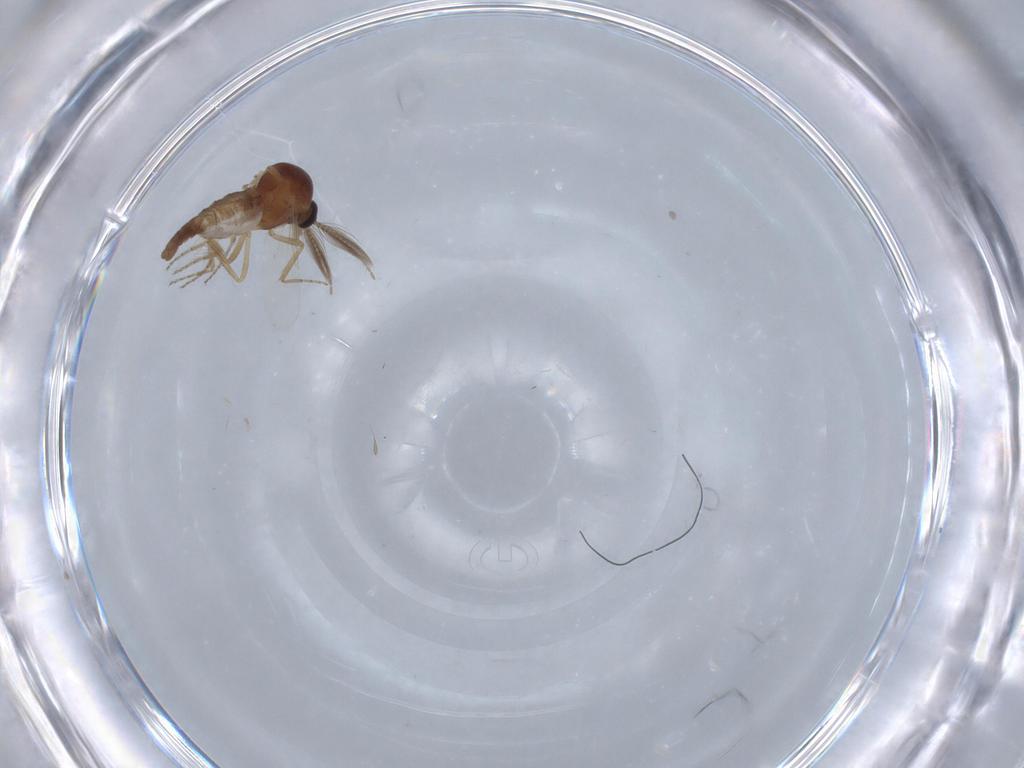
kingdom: Animalia
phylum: Arthropoda
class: Insecta
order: Diptera
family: Ceratopogonidae
